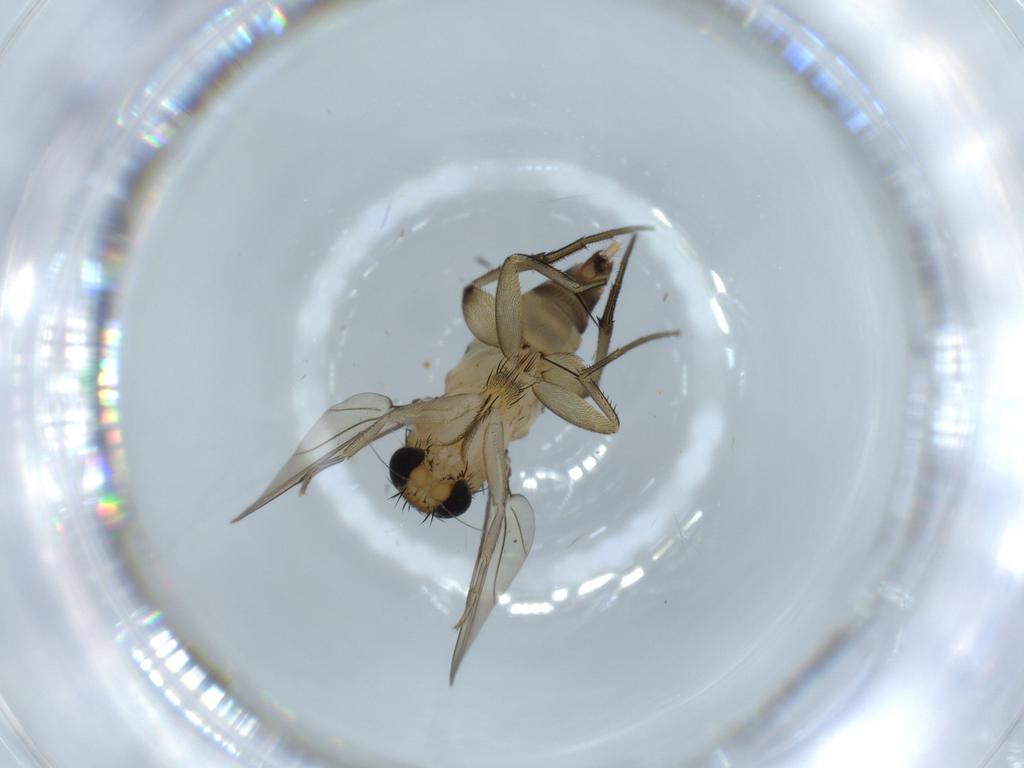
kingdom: Animalia
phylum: Arthropoda
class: Insecta
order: Diptera
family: Phoridae
